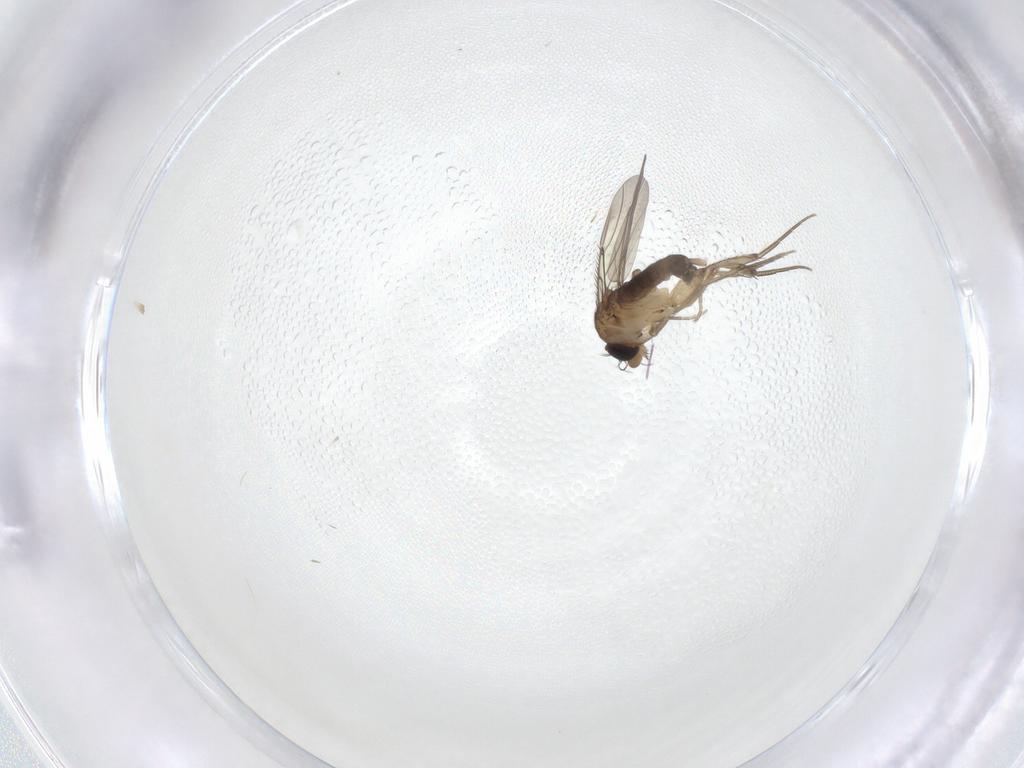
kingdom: Animalia
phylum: Arthropoda
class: Insecta
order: Diptera
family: Phoridae
